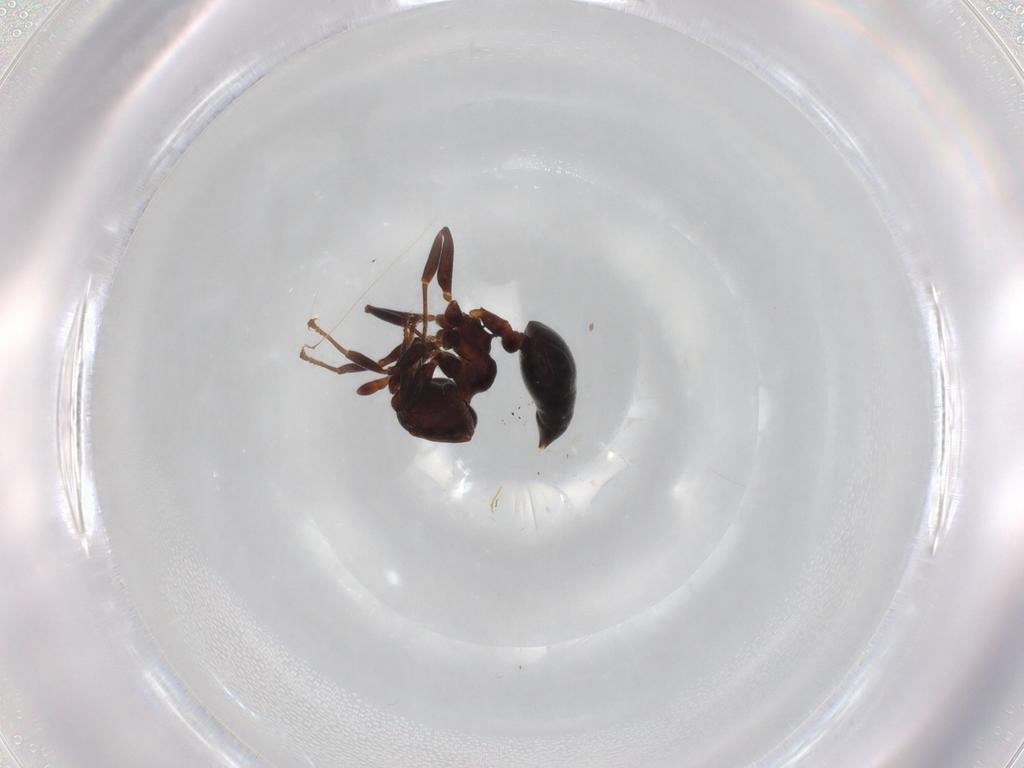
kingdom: Animalia
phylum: Arthropoda
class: Insecta
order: Hymenoptera
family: Formicidae
